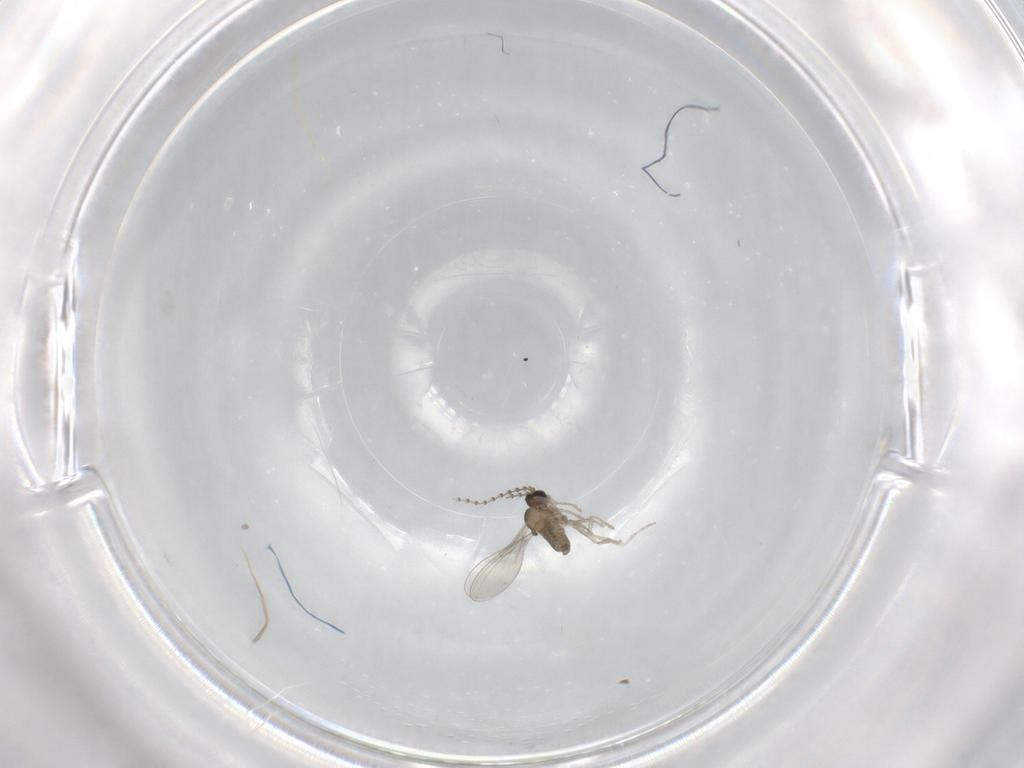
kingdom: Animalia
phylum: Arthropoda
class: Insecta
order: Diptera
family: Cecidomyiidae
